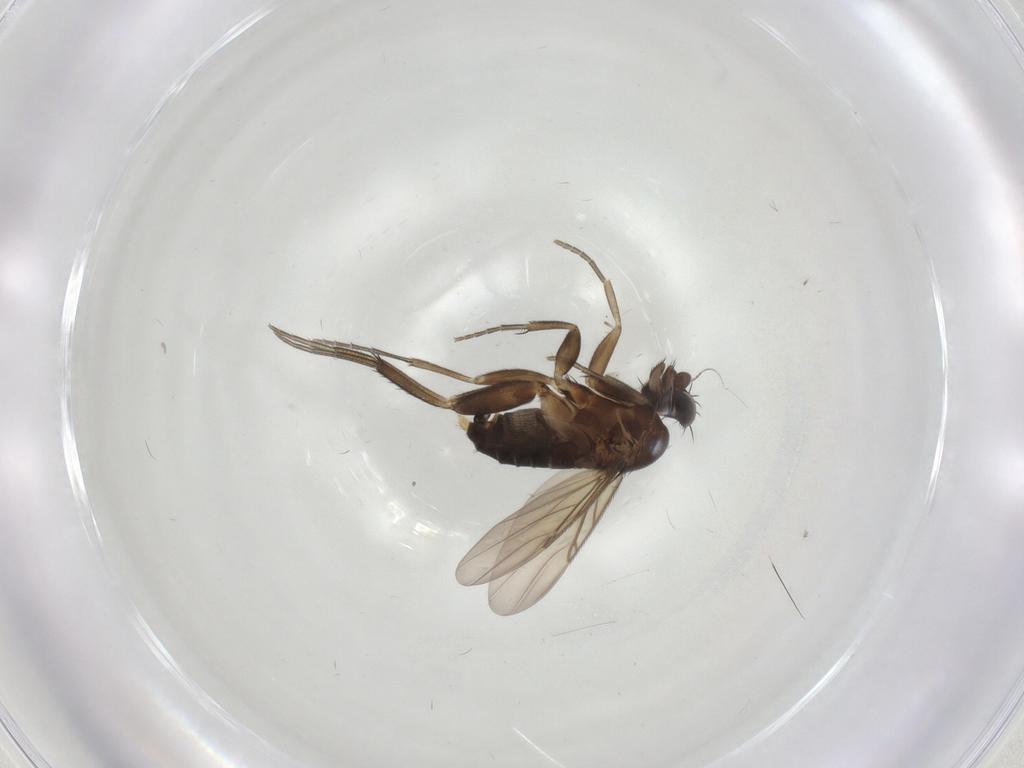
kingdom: Animalia
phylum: Arthropoda
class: Insecta
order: Diptera
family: Phoridae
